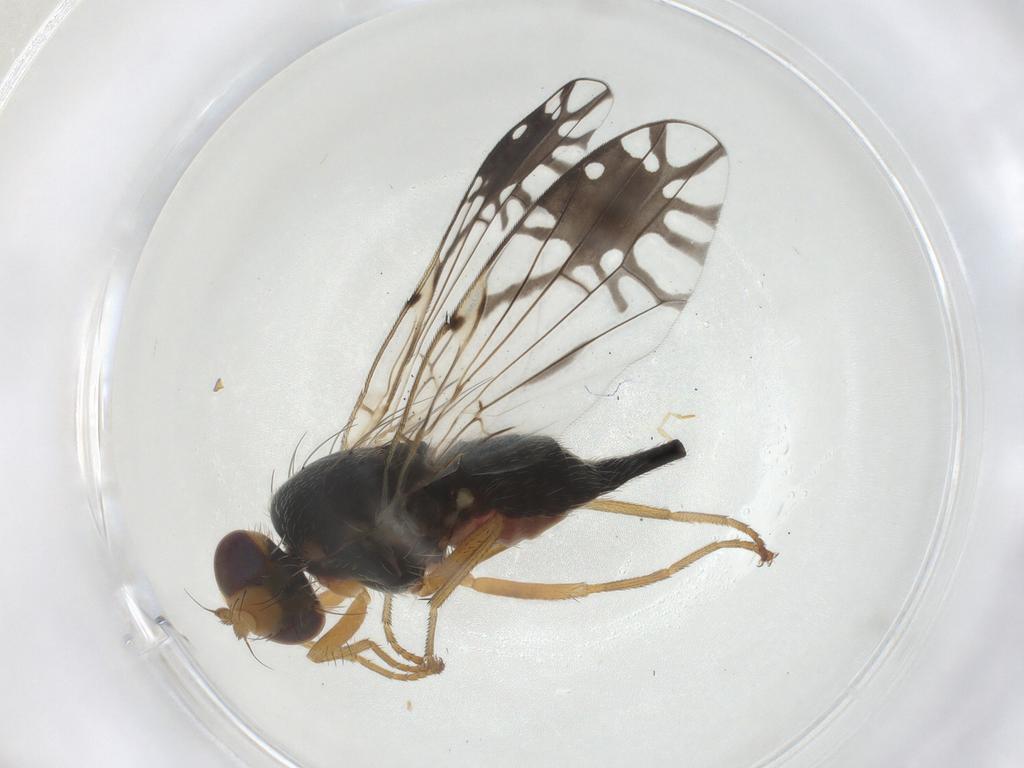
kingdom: Animalia
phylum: Arthropoda
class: Insecta
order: Diptera
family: Tephritidae
